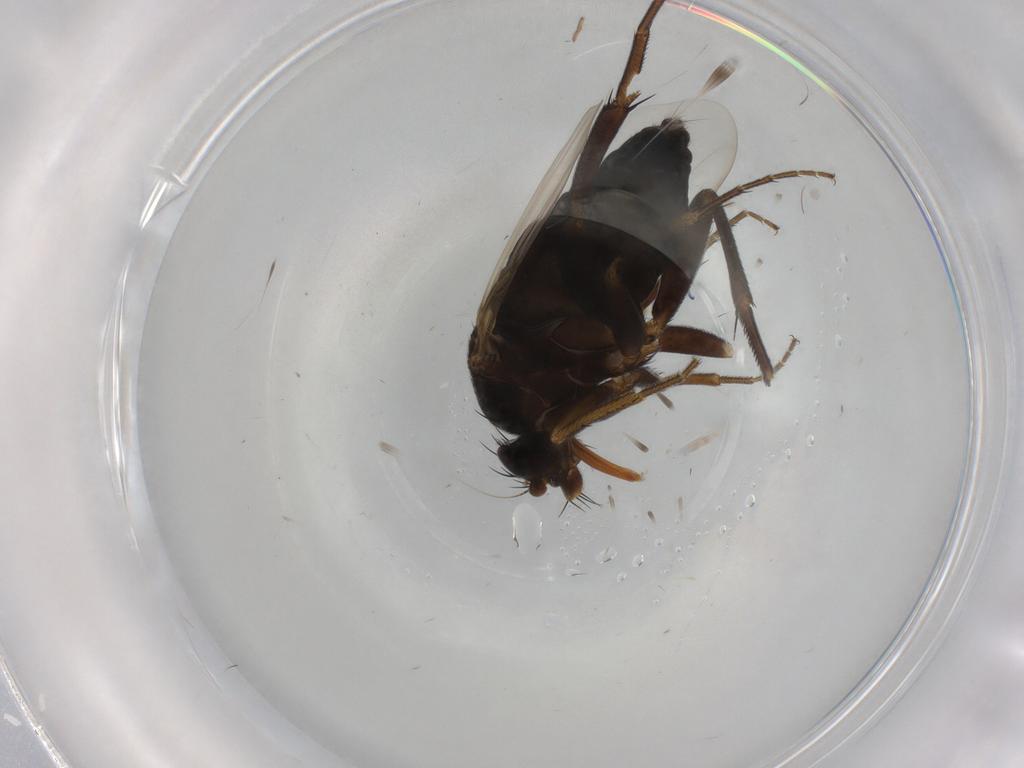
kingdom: Animalia
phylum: Arthropoda
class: Insecta
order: Diptera
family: Phoridae
